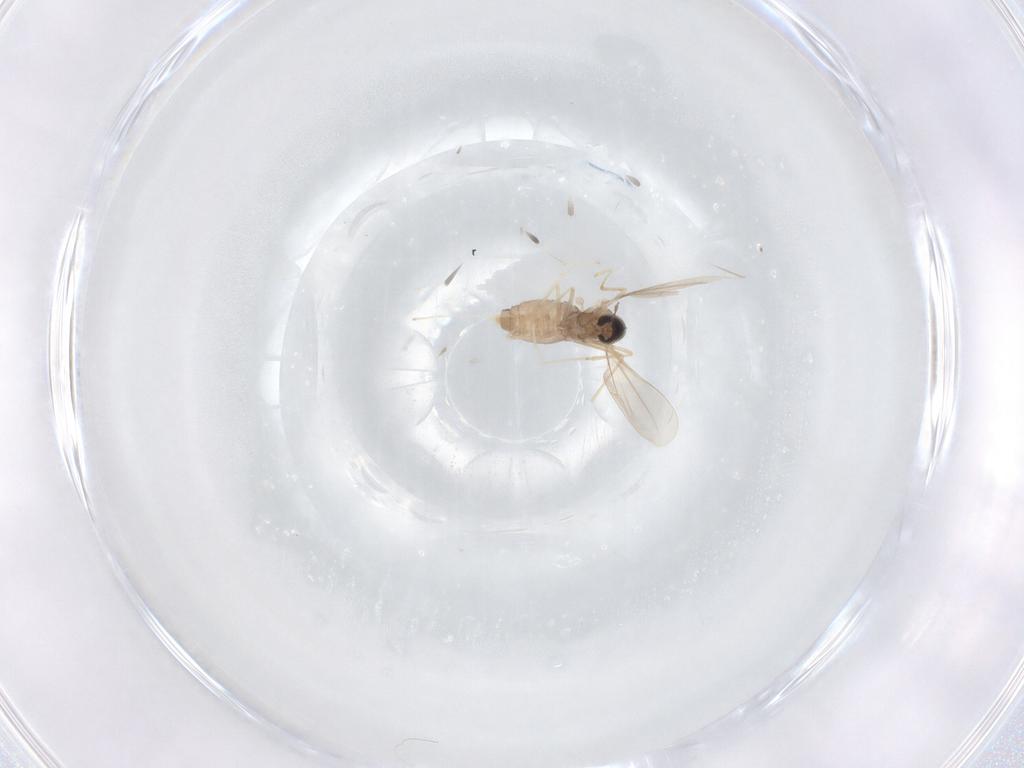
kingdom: Animalia
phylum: Arthropoda
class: Insecta
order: Diptera
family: Cecidomyiidae
